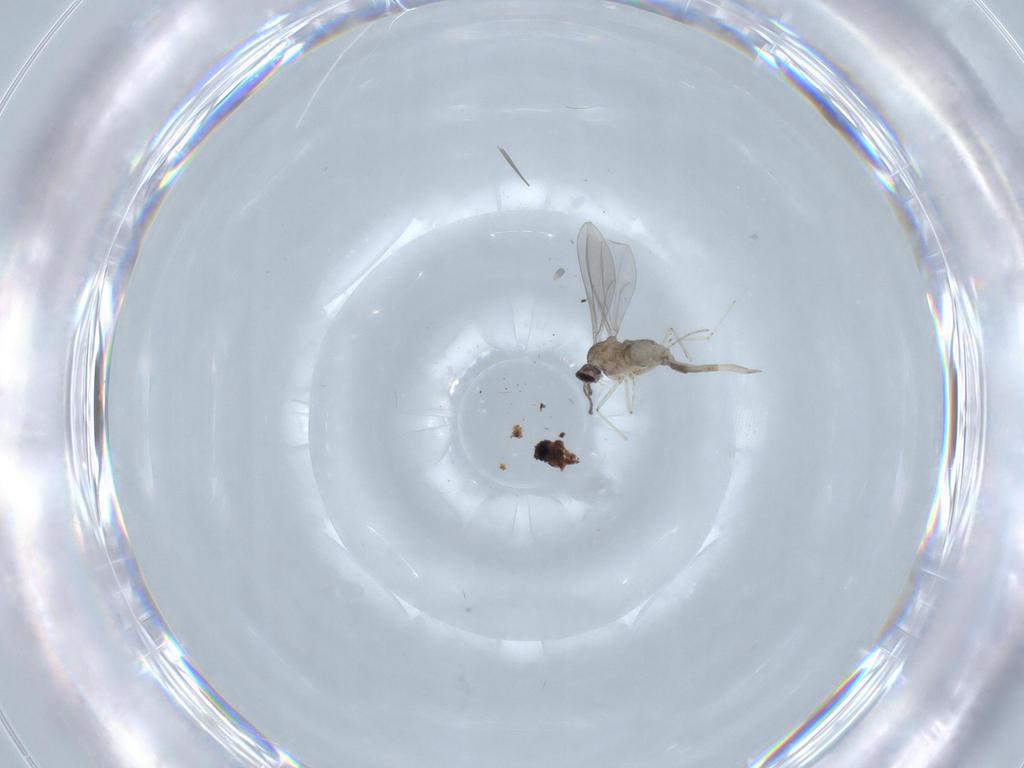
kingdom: Animalia
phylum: Arthropoda
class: Insecta
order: Diptera
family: Cecidomyiidae
